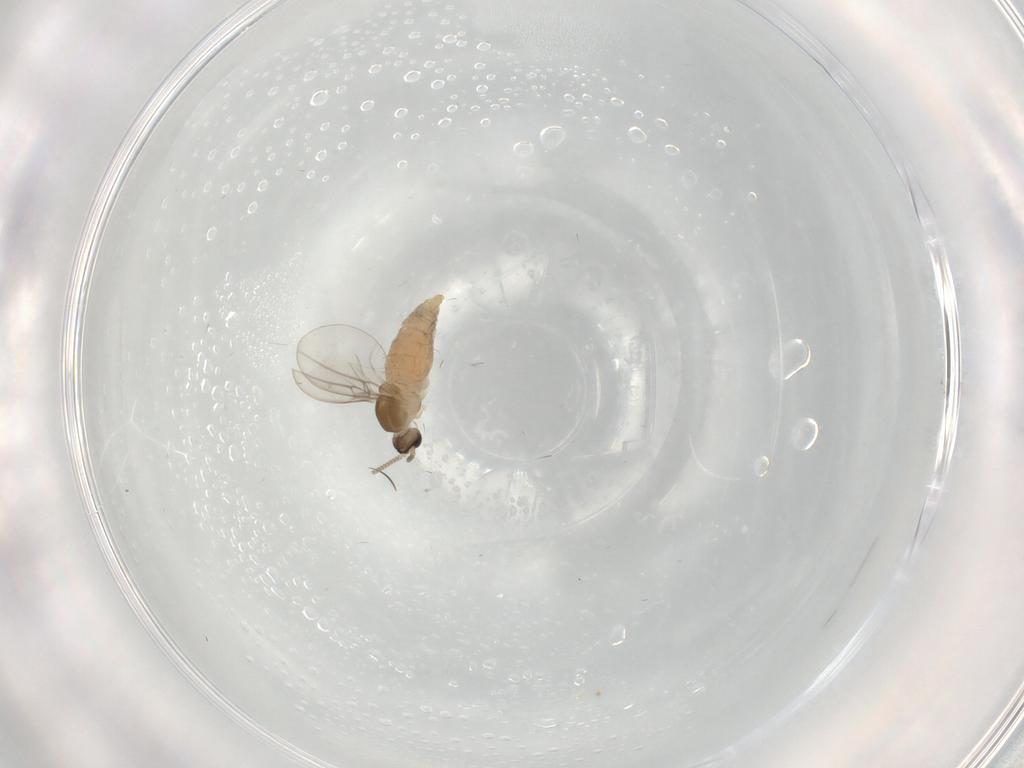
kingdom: Animalia
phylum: Arthropoda
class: Insecta
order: Diptera
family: Cecidomyiidae
